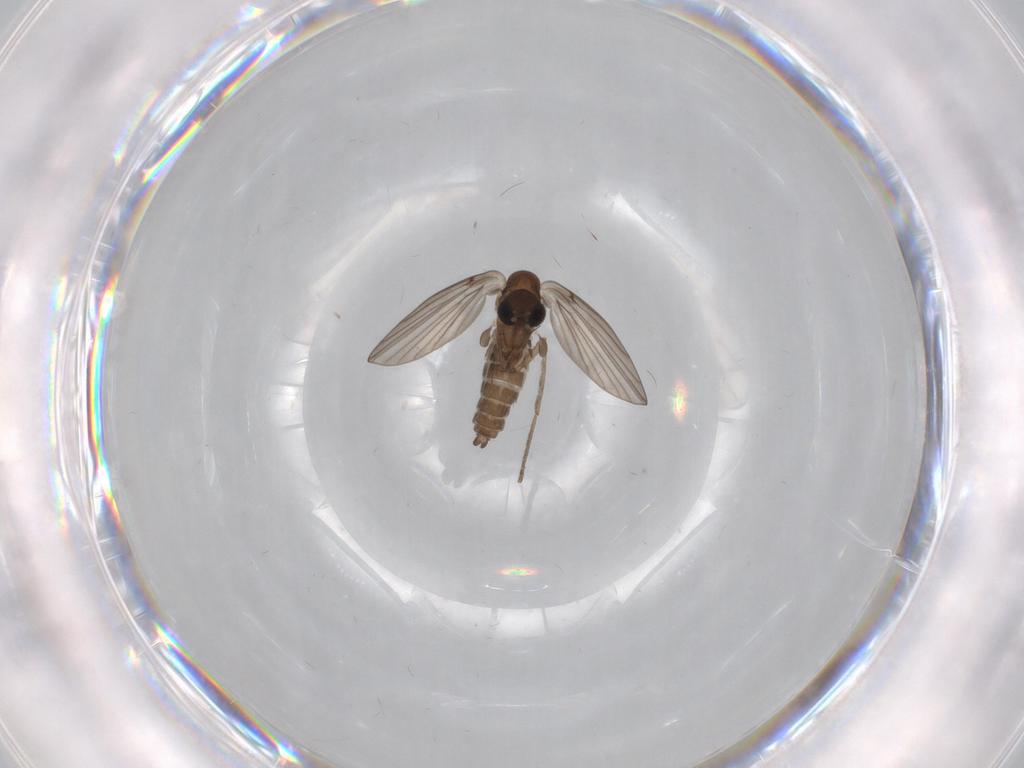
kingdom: Animalia
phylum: Arthropoda
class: Insecta
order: Diptera
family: Psychodidae
